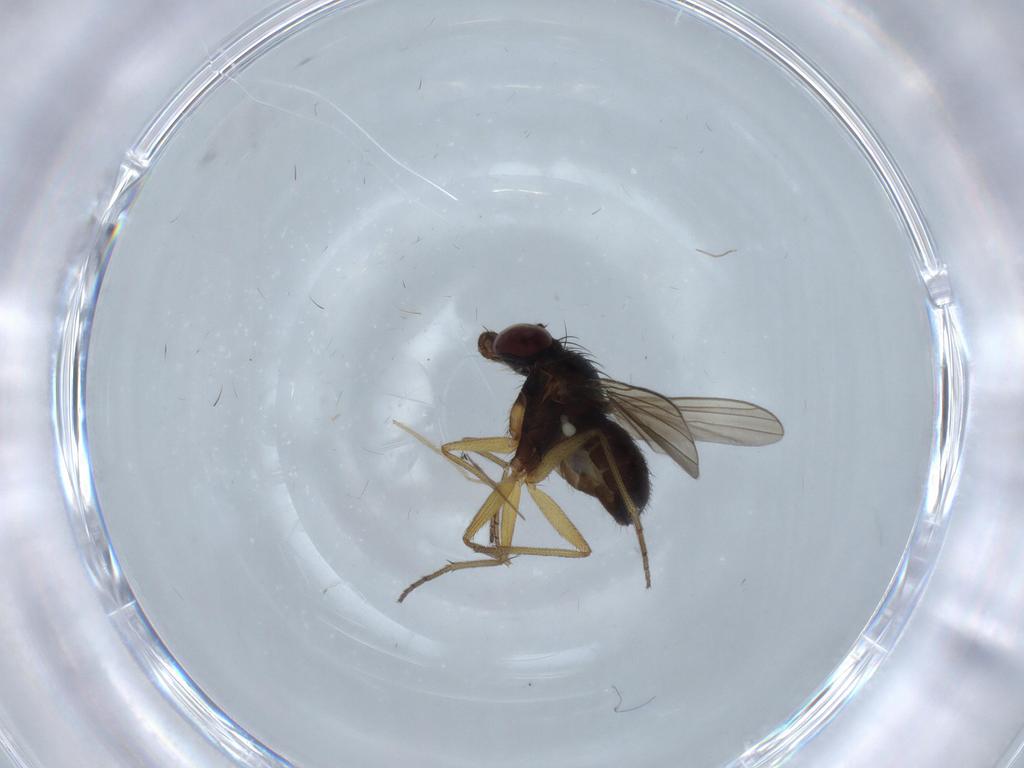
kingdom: Animalia
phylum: Arthropoda
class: Insecta
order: Diptera
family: Dolichopodidae
